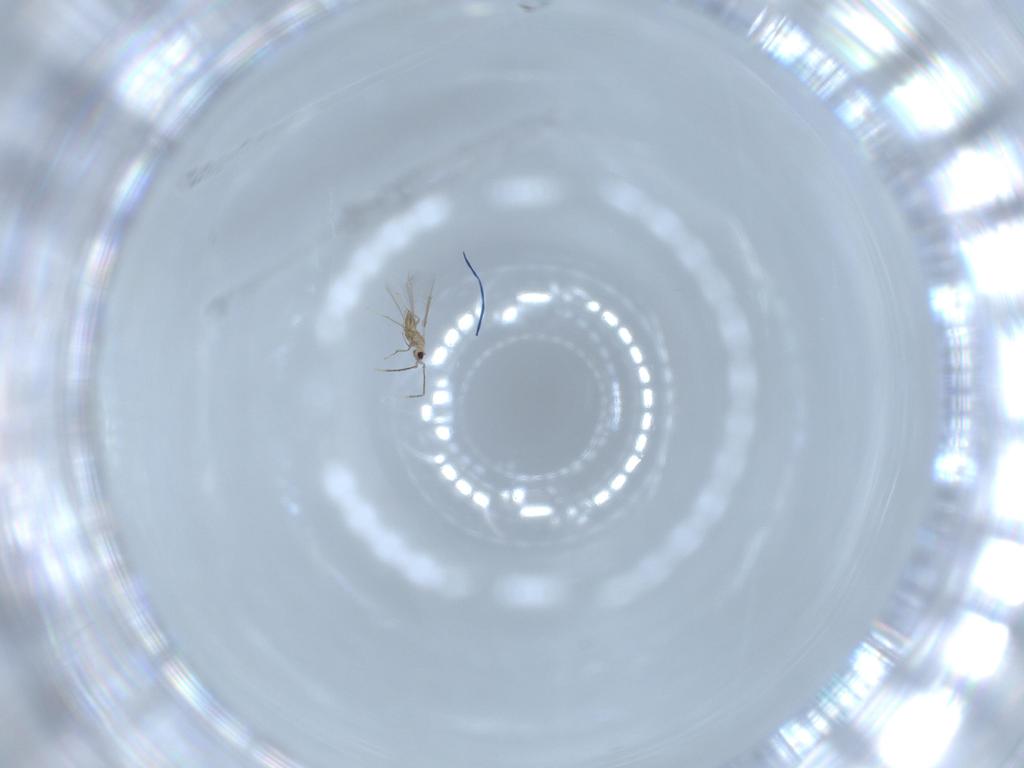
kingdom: Animalia
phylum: Arthropoda
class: Insecta
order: Hymenoptera
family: Mymaridae
